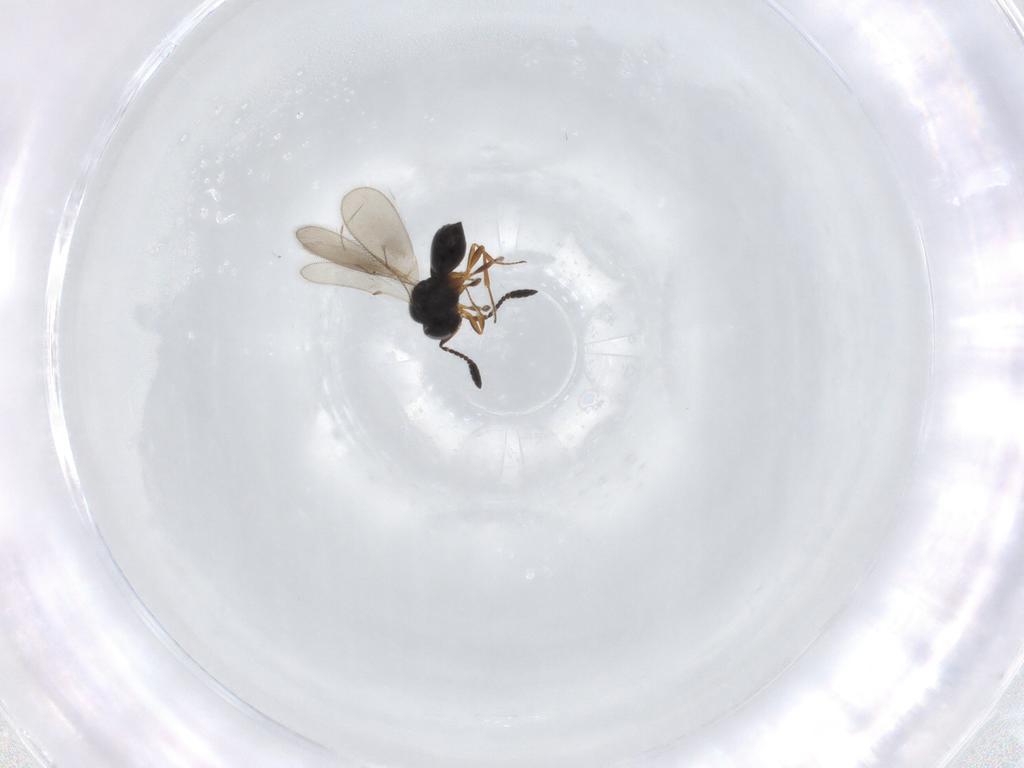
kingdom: Animalia
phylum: Arthropoda
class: Insecta
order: Hymenoptera
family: Scelionidae
